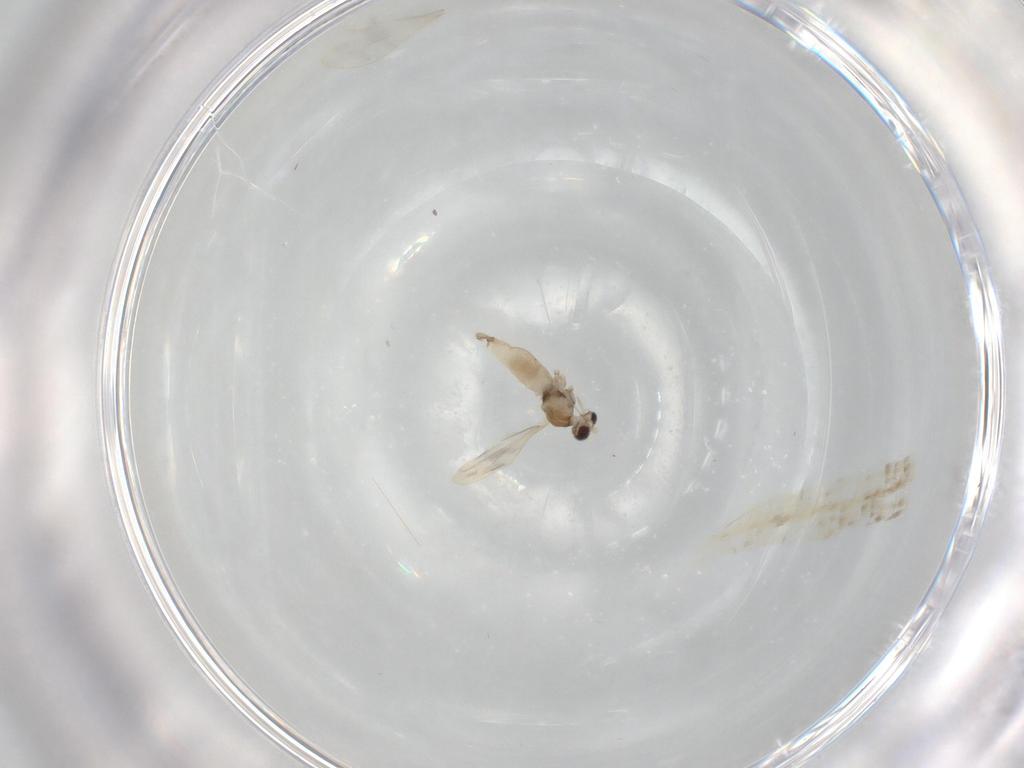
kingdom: Animalia
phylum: Arthropoda
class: Insecta
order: Diptera
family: Cecidomyiidae
